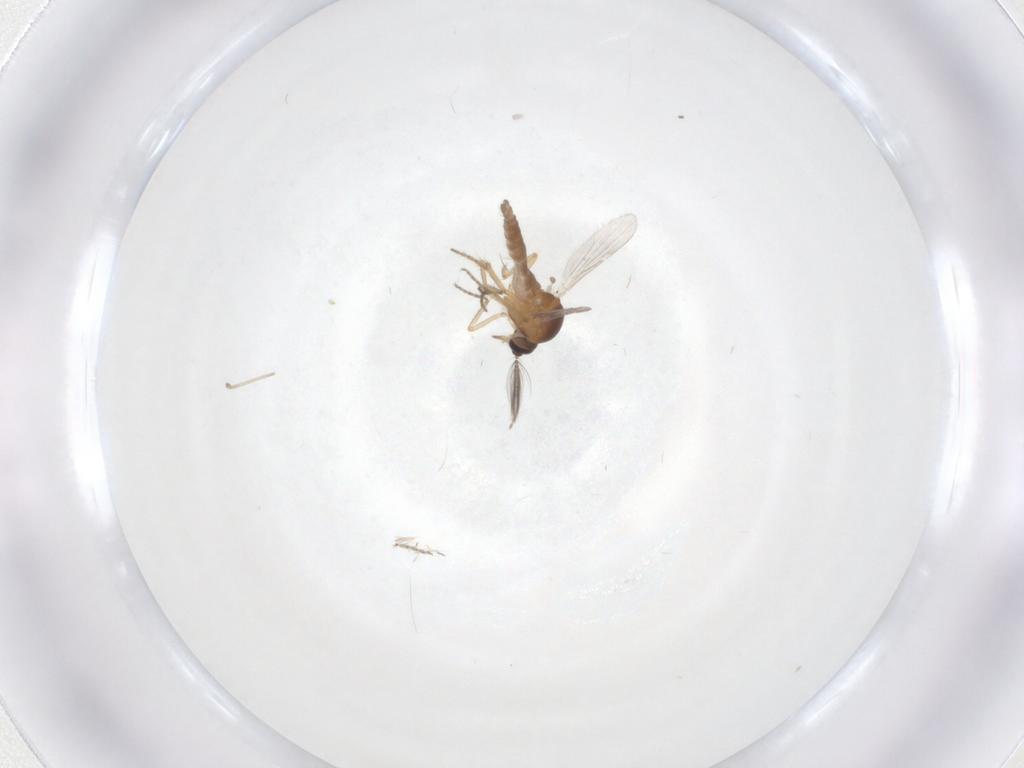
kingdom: Animalia
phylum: Arthropoda
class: Insecta
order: Diptera
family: Ceratopogonidae
